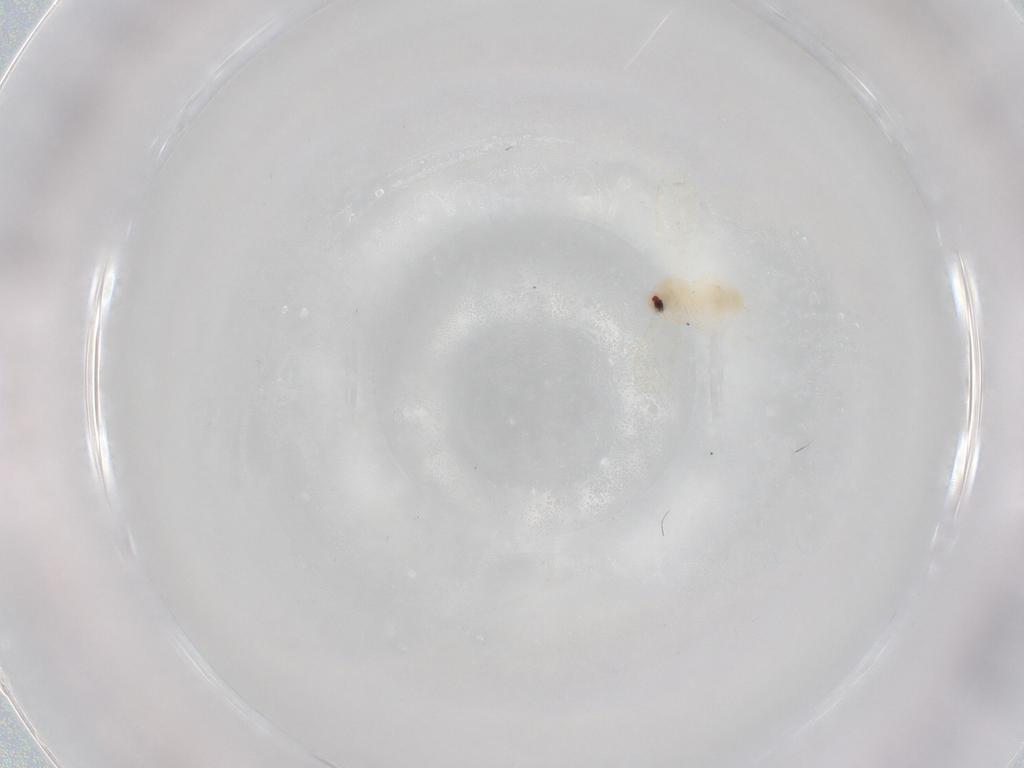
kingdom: Animalia
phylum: Arthropoda
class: Insecta
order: Hemiptera
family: Aleyrodidae
